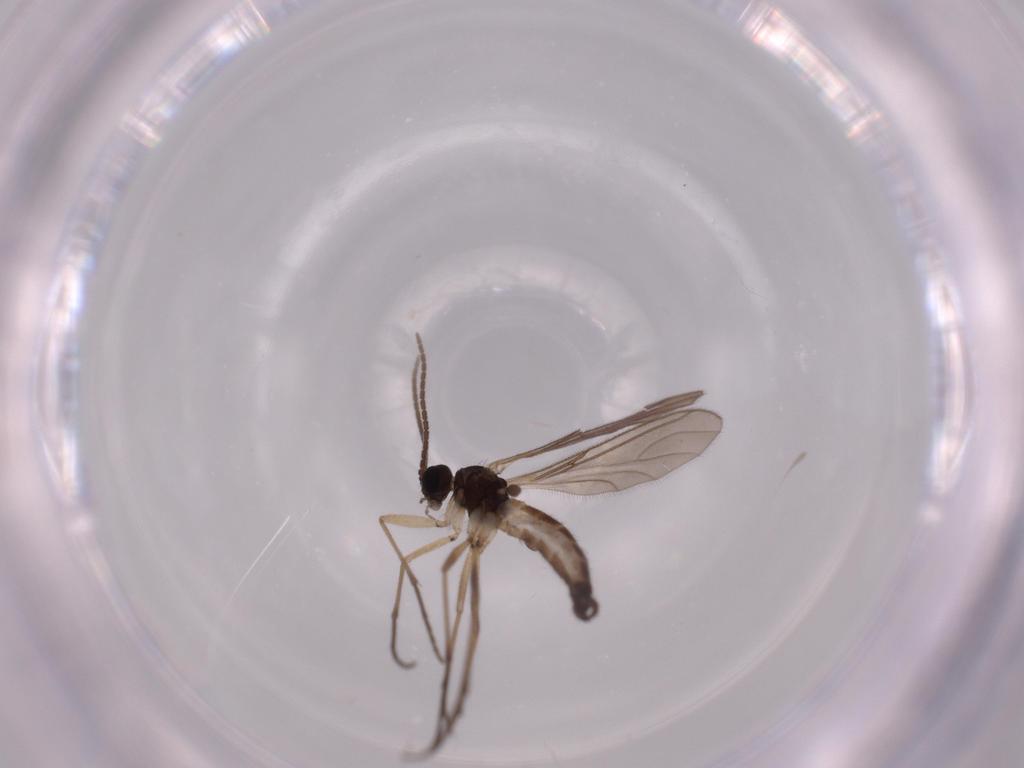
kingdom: Animalia
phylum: Arthropoda
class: Insecta
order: Diptera
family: Sciaridae
